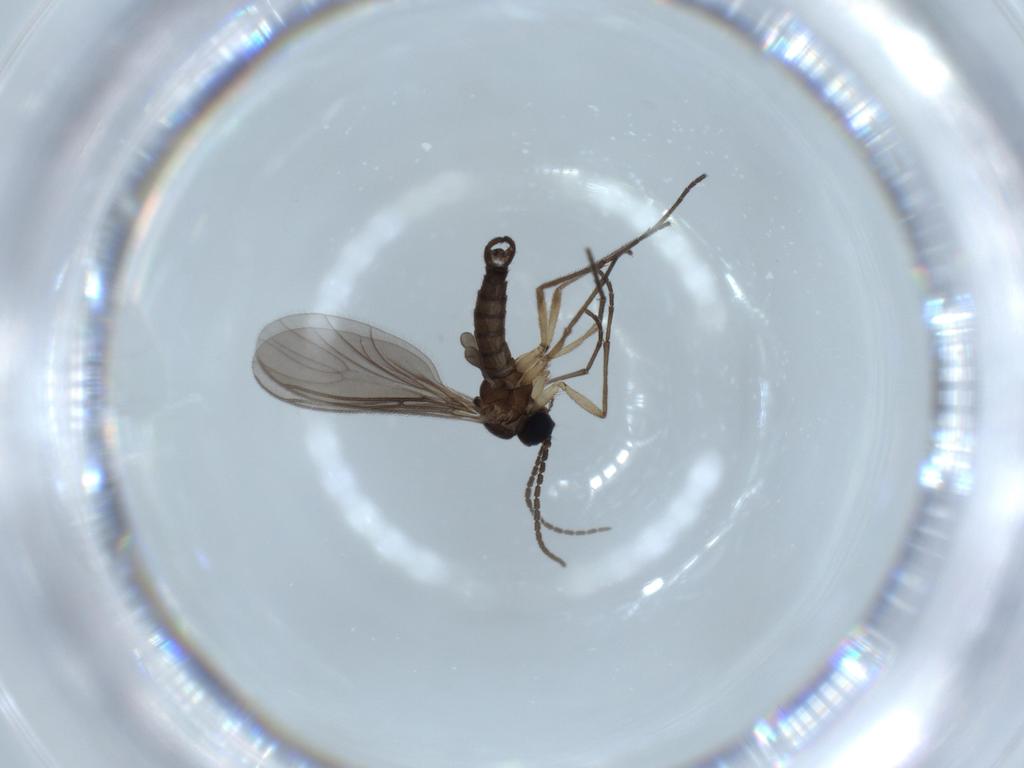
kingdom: Animalia
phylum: Arthropoda
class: Insecta
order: Diptera
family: Sciaridae
